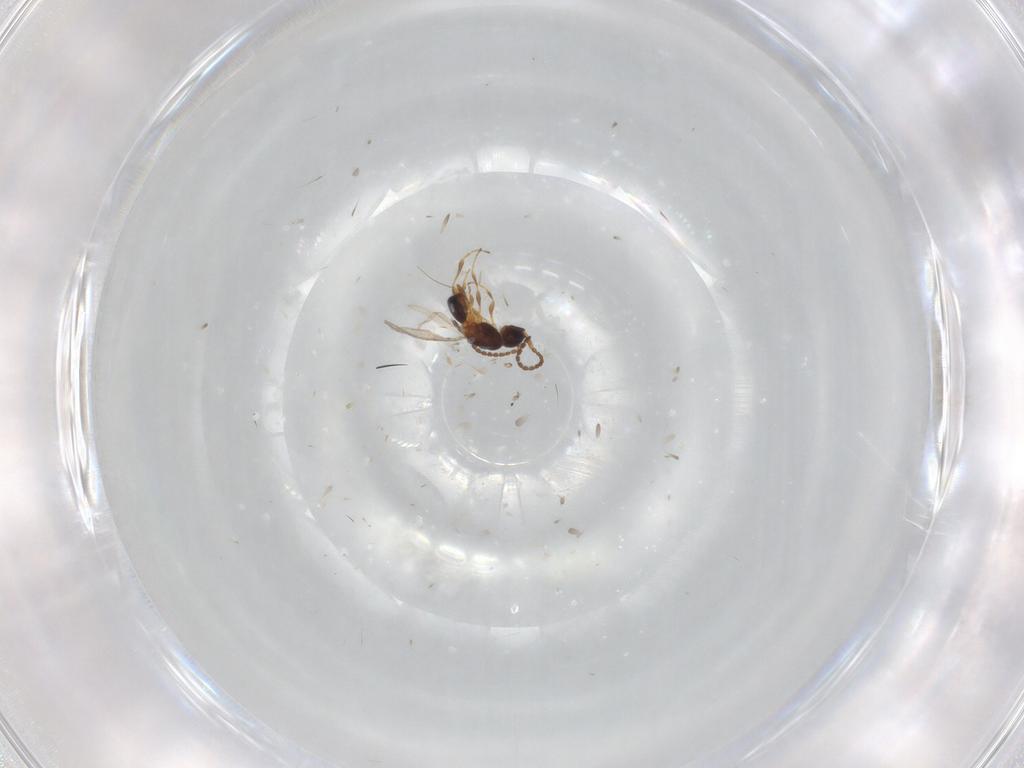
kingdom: Animalia
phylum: Arthropoda
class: Insecta
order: Hymenoptera
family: Diapriidae
